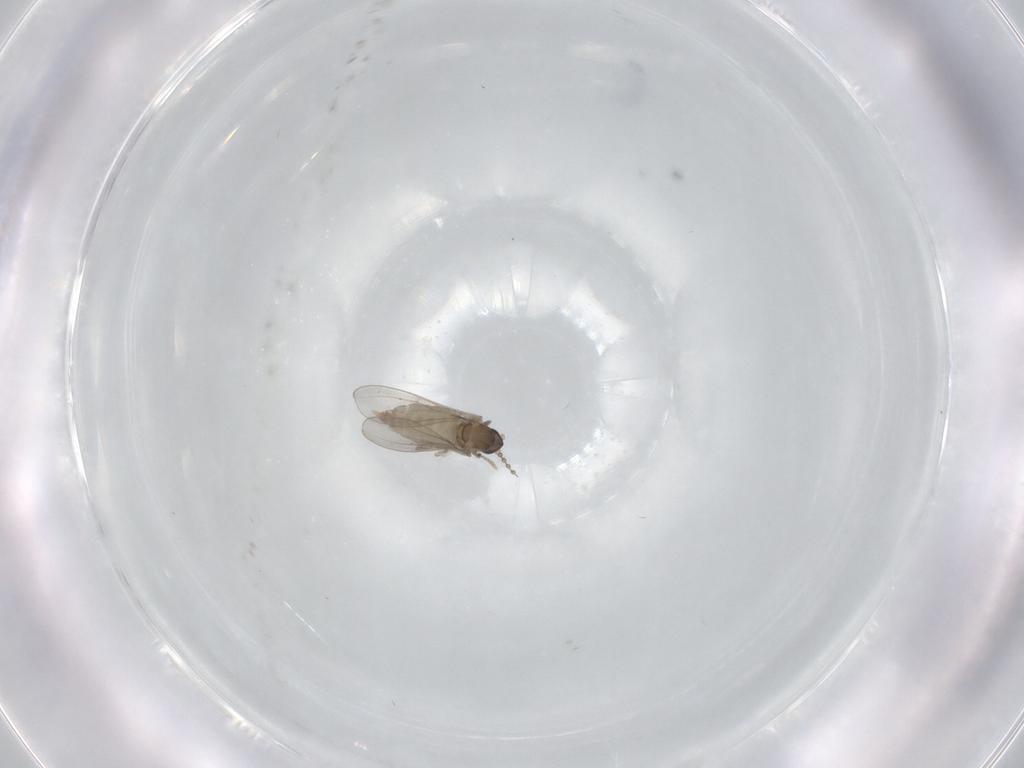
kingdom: Animalia
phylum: Arthropoda
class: Insecta
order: Diptera
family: Cecidomyiidae
